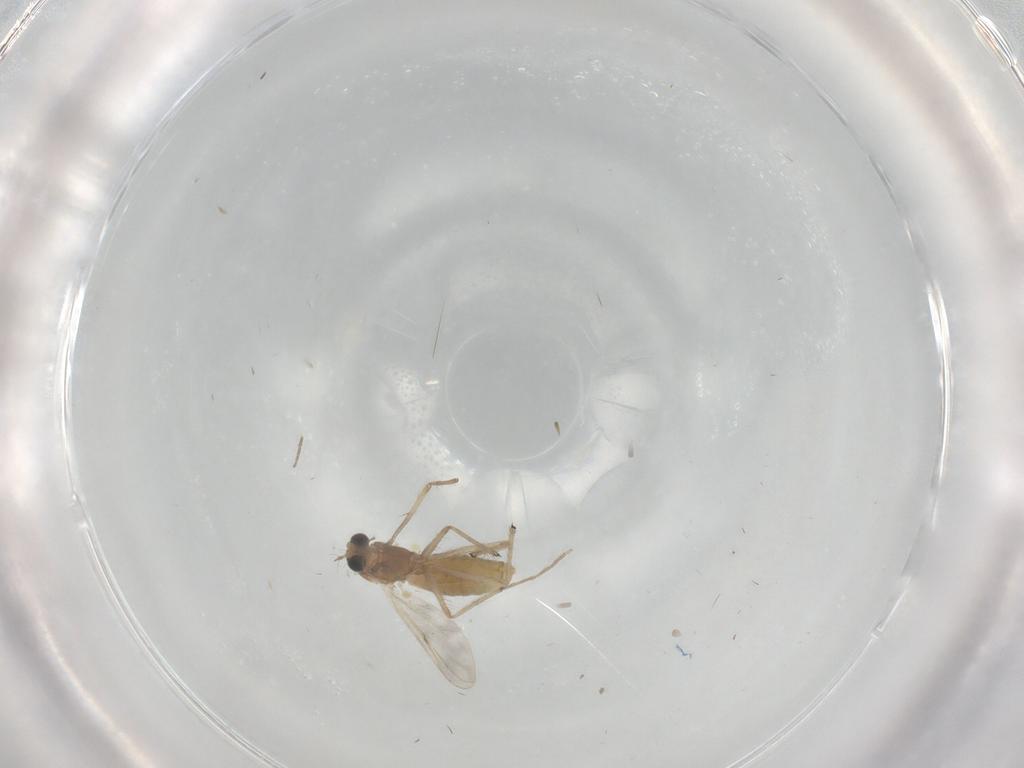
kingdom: Animalia
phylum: Arthropoda
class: Insecta
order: Diptera
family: Chironomidae
